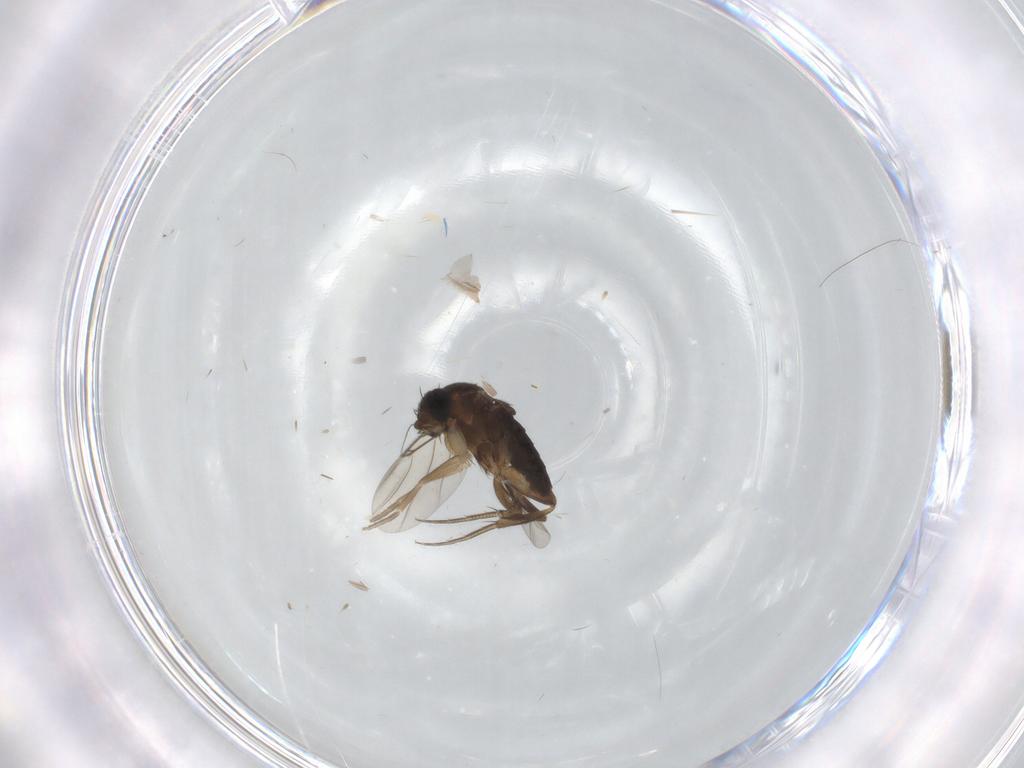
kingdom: Animalia
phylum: Arthropoda
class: Insecta
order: Diptera
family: Phoridae
